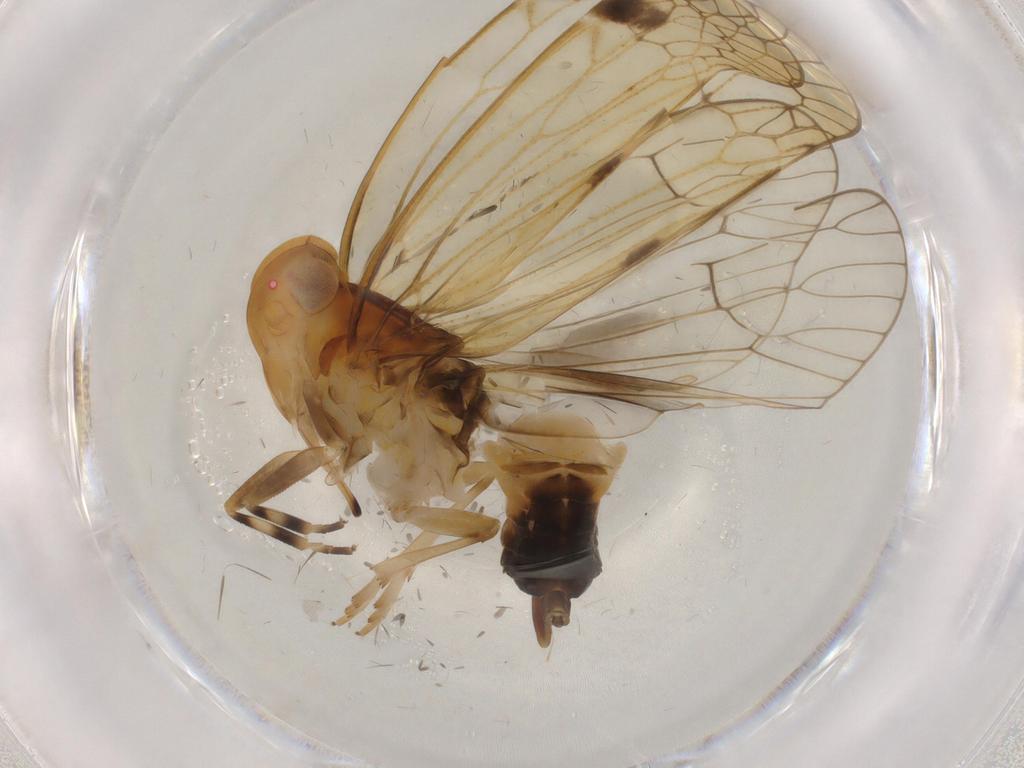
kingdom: Animalia
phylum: Arthropoda
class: Insecta
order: Hemiptera
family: Cixiidae
